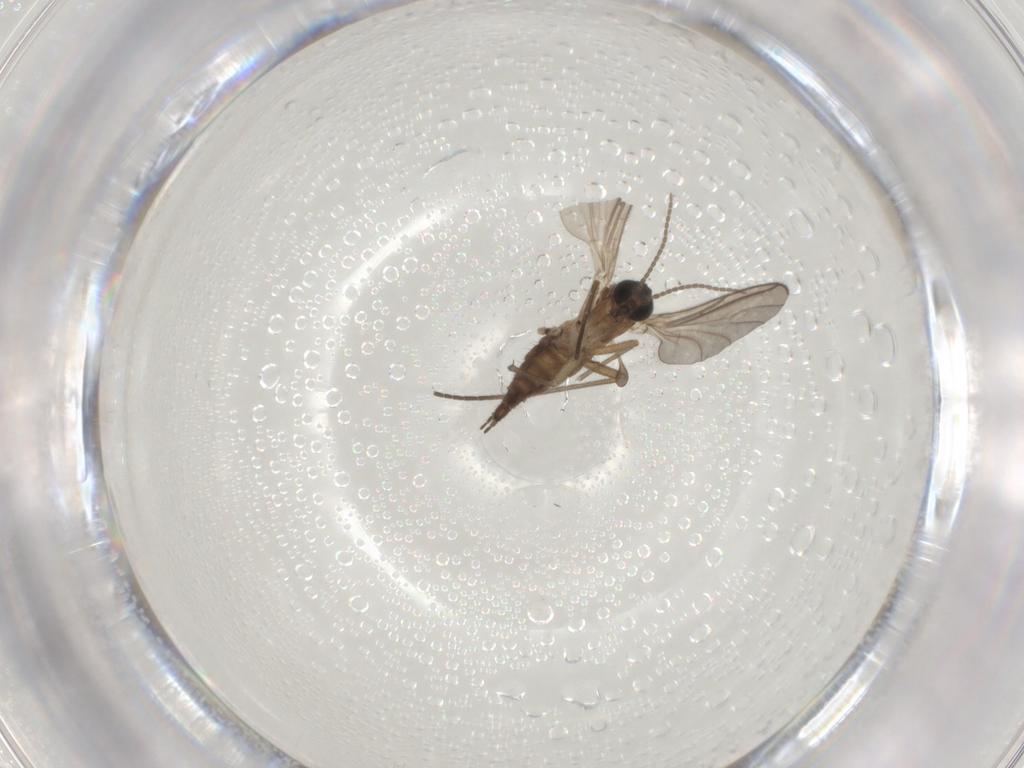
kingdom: Animalia
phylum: Arthropoda
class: Insecta
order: Diptera
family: Sciaridae
